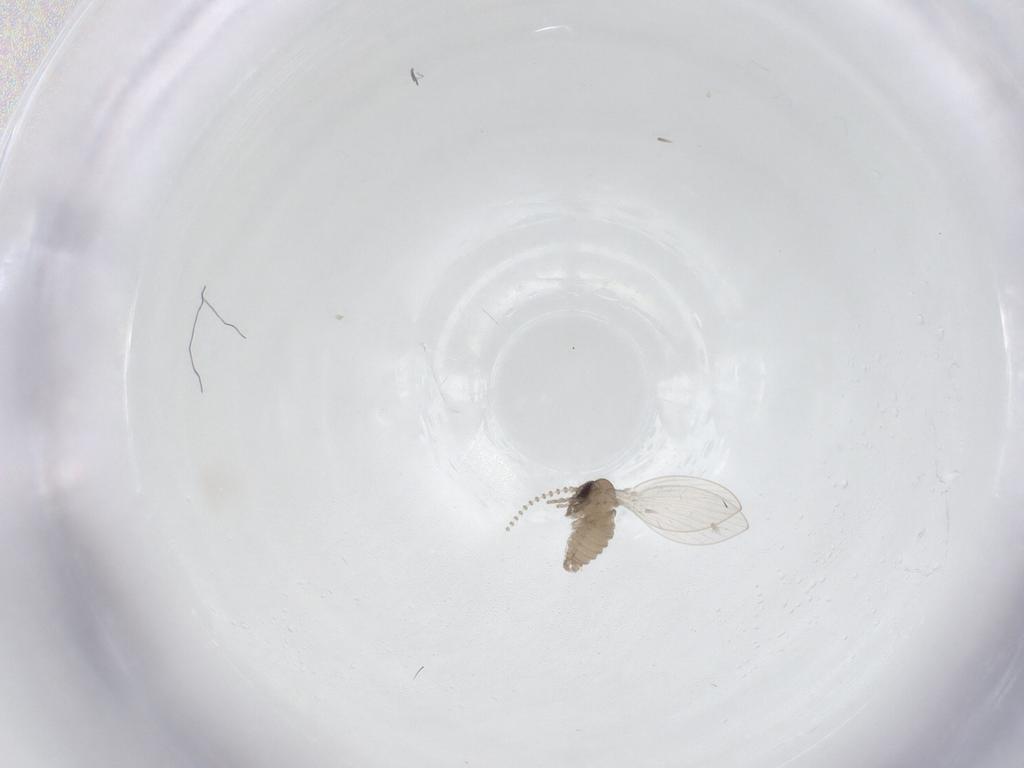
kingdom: Animalia
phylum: Arthropoda
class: Insecta
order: Diptera
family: Psychodidae
